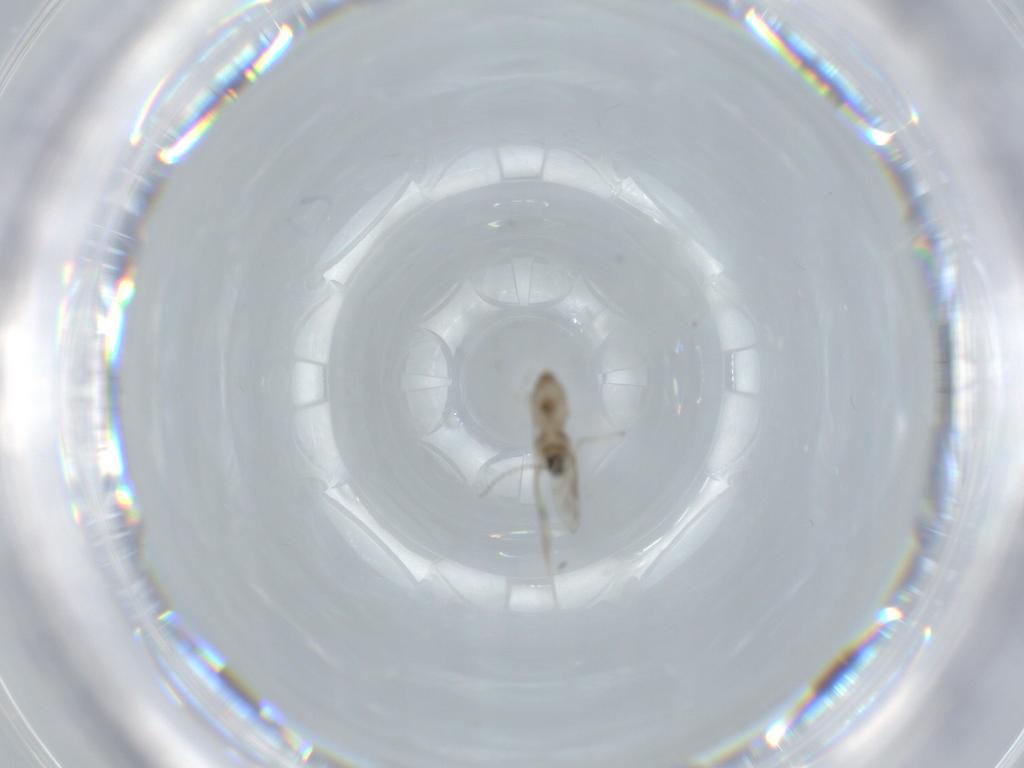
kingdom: Animalia
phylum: Arthropoda
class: Insecta
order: Diptera
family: Cecidomyiidae
